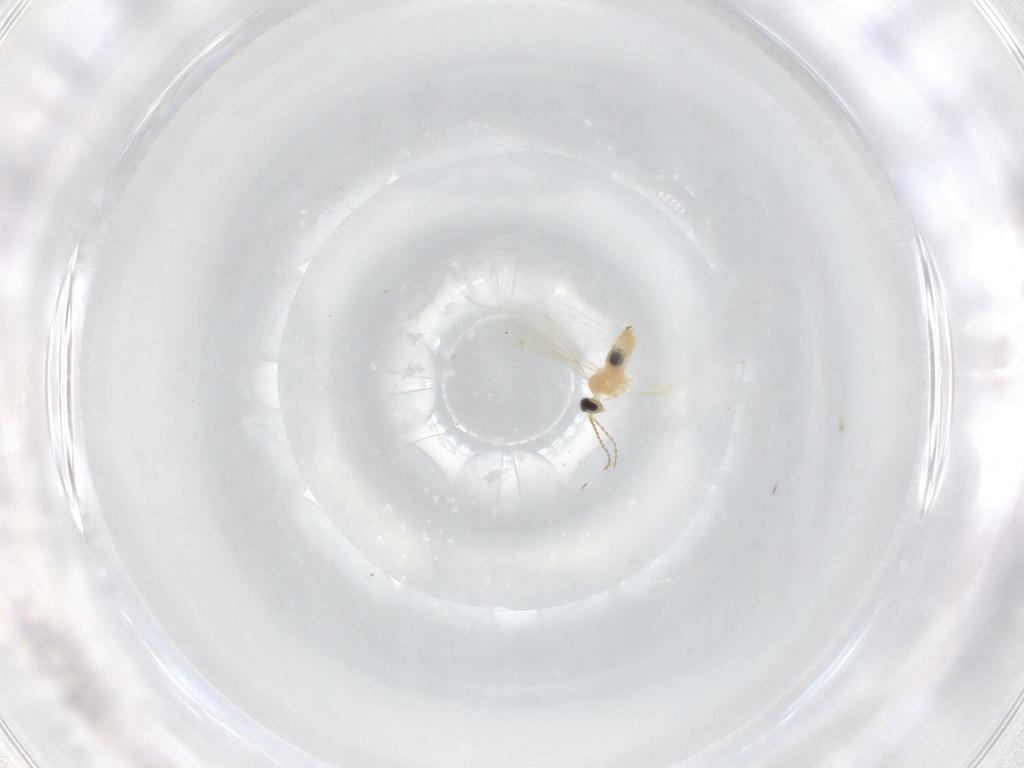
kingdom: Animalia
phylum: Arthropoda
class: Insecta
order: Diptera
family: Cecidomyiidae
